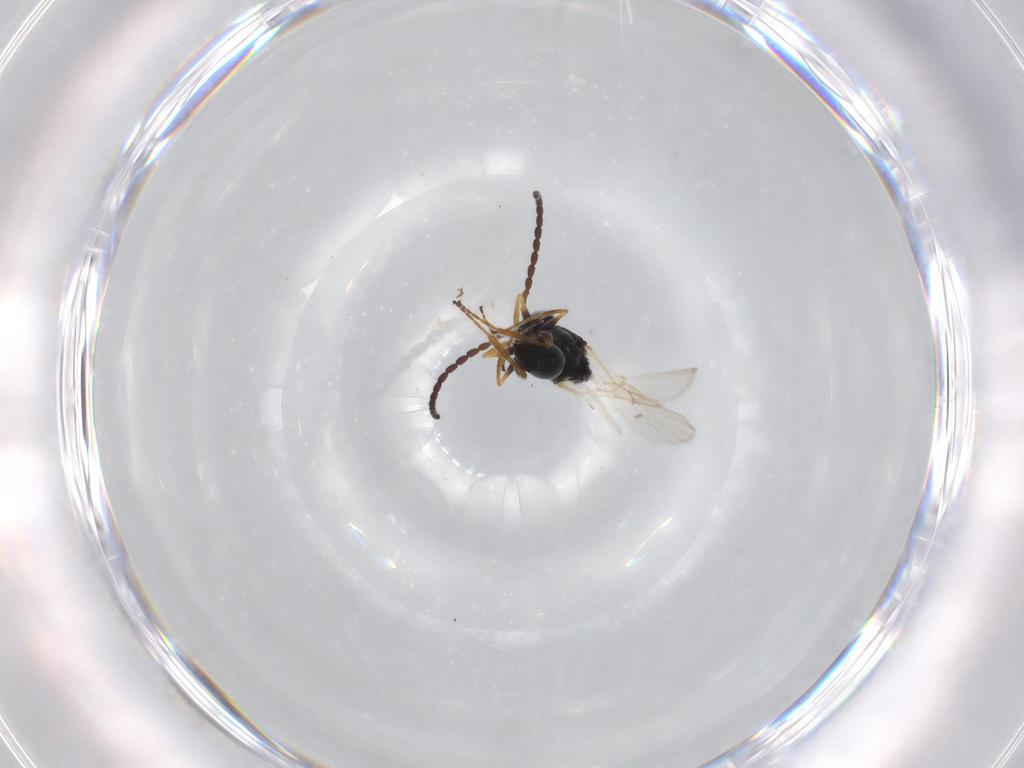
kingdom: Animalia
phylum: Arthropoda
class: Insecta
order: Hymenoptera
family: Figitidae
